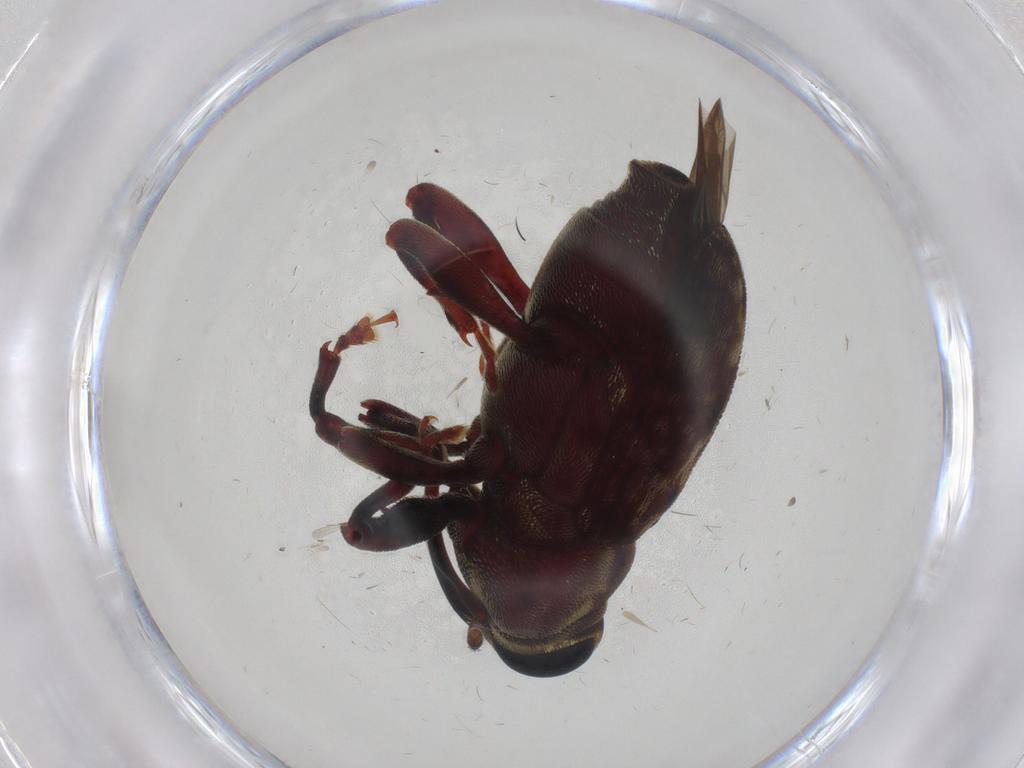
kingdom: Animalia
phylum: Arthropoda
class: Insecta
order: Coleoptera
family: Curculionidae
